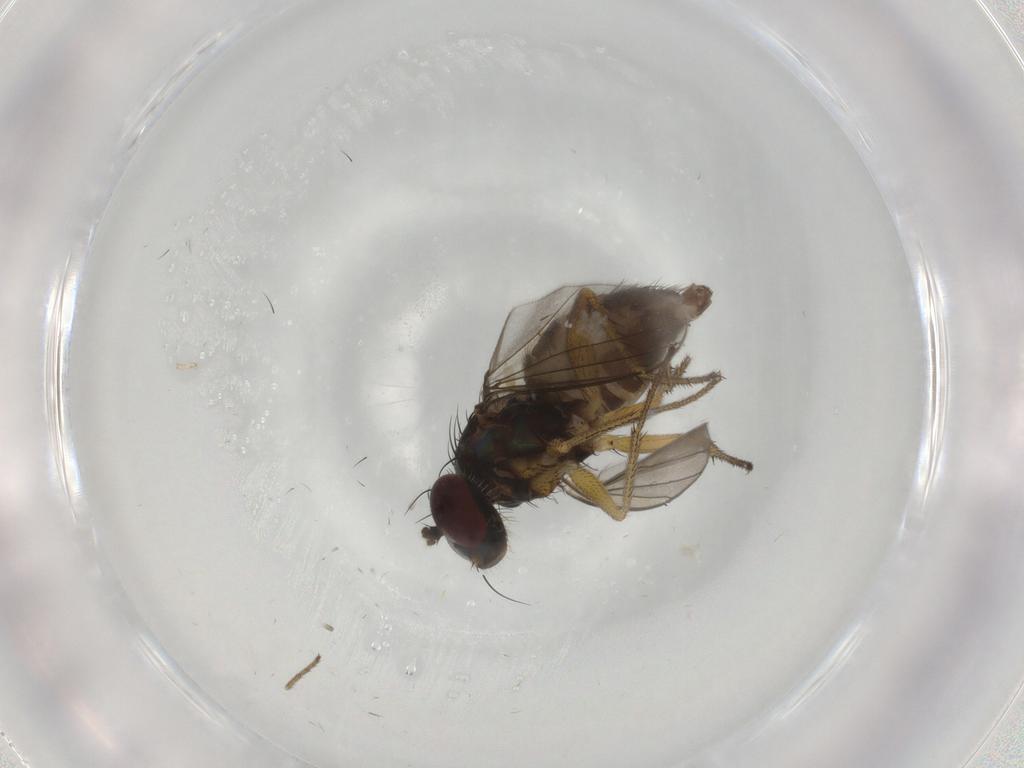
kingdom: Animalia
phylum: Arthropoda
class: Insecta
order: Diptera
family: Dolichopodidae
